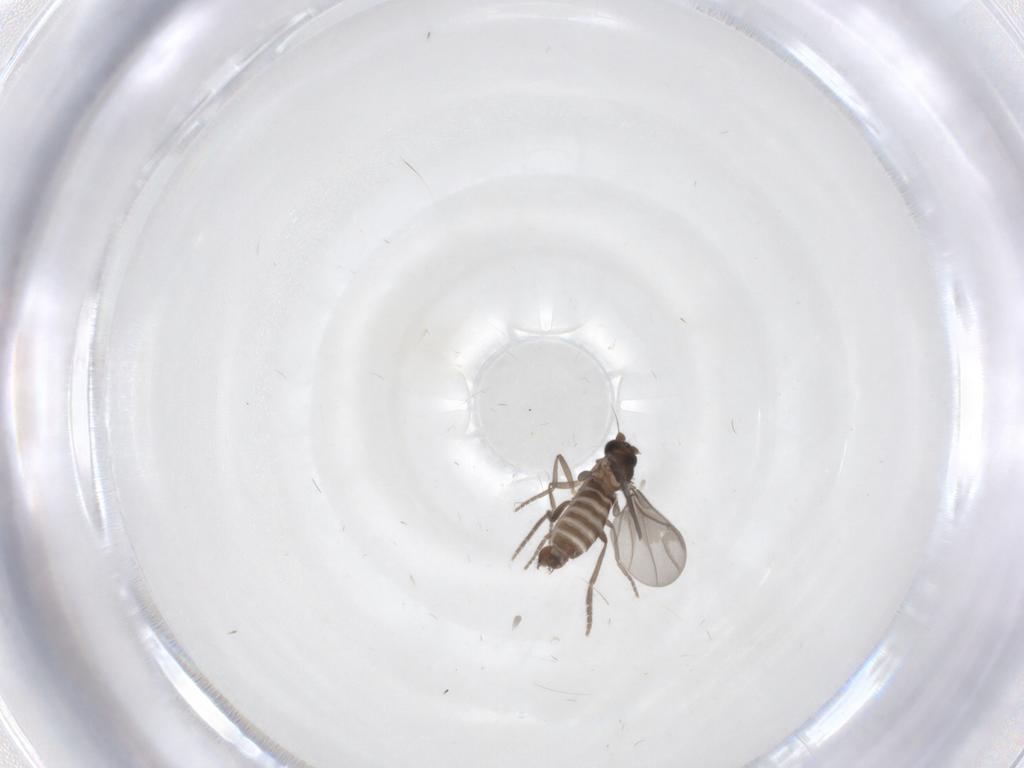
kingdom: Animalia
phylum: Arthropoda
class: Insecta
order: Diptera
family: Phoridae
